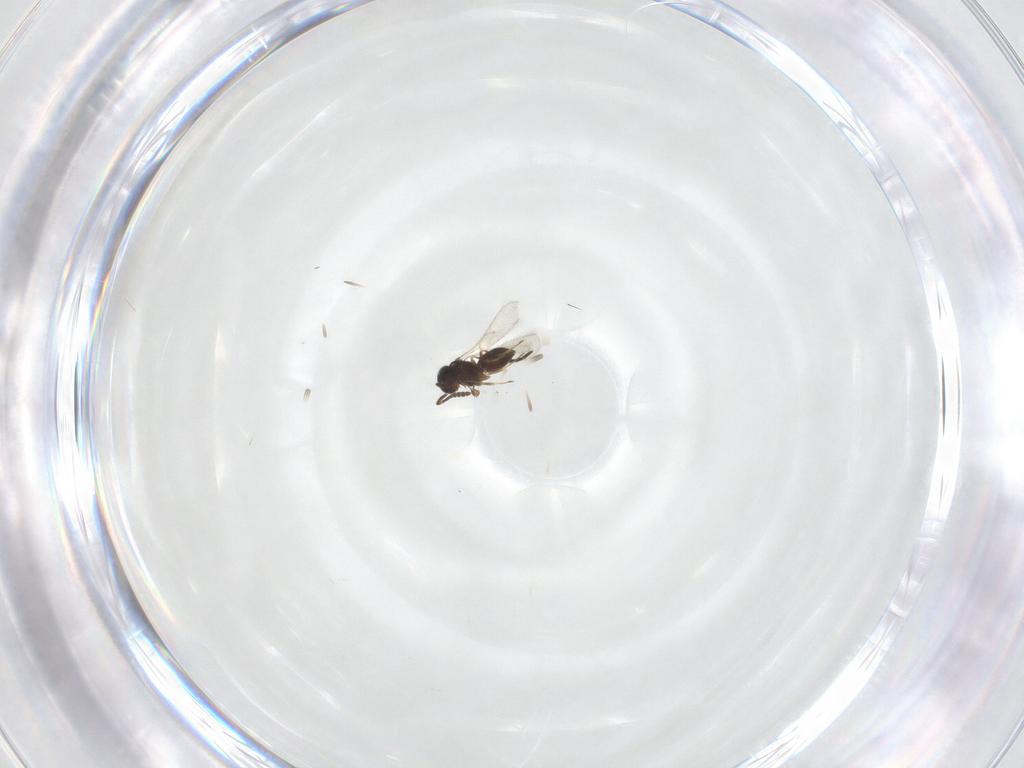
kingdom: Animalia
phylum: Arthropoda
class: Insecta
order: Hymenoptera
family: Scelionidae
